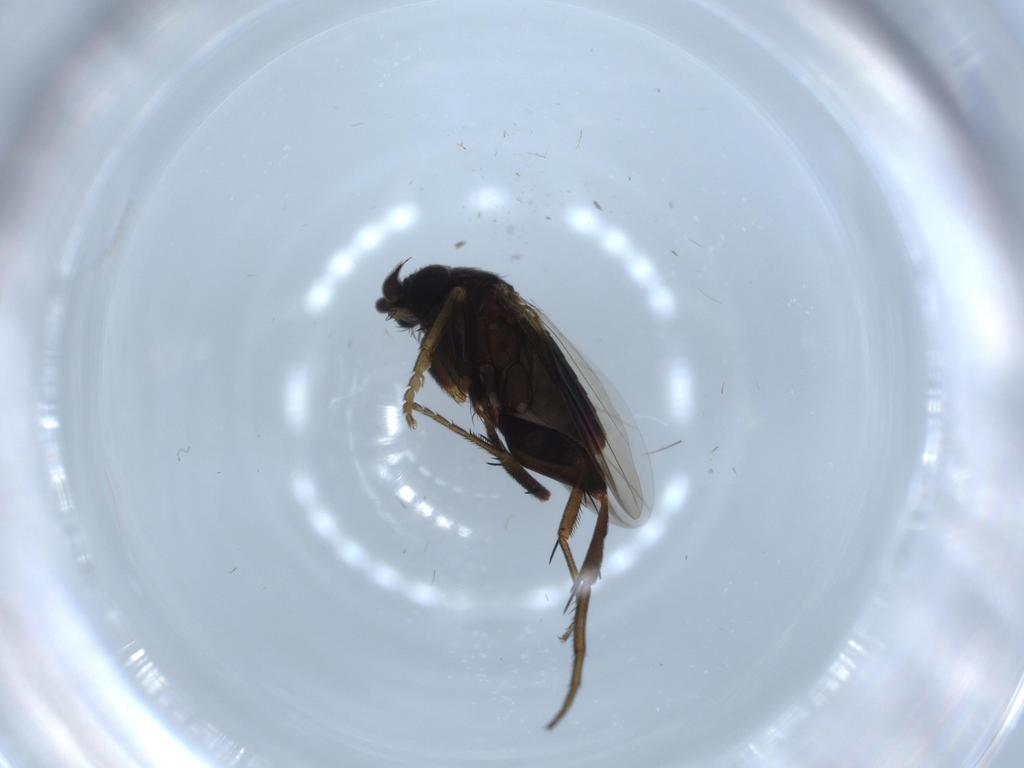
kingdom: Animalia
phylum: Arthropoda
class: Insecta
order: Diptera
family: Phoridae
